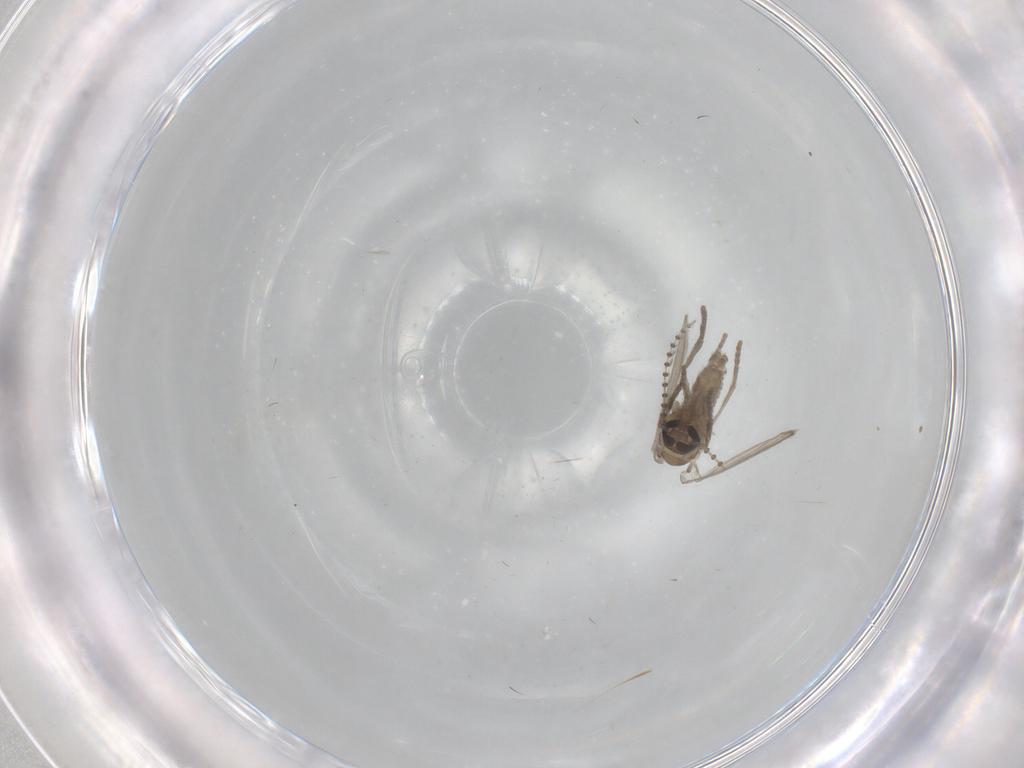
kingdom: Animalia
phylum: Arthropoda
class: Insecta
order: Diptera
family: Psychodidae
